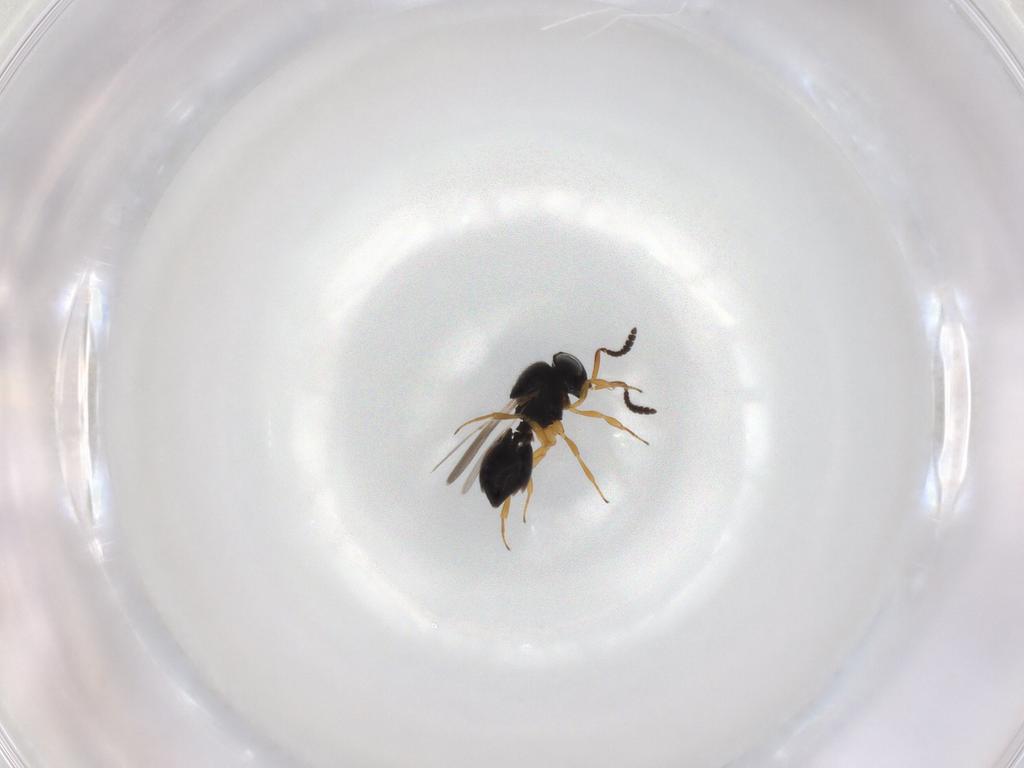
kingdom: Animalia
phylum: Arthropoda
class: Insecta
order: Hymenoptera
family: Scelionidae
